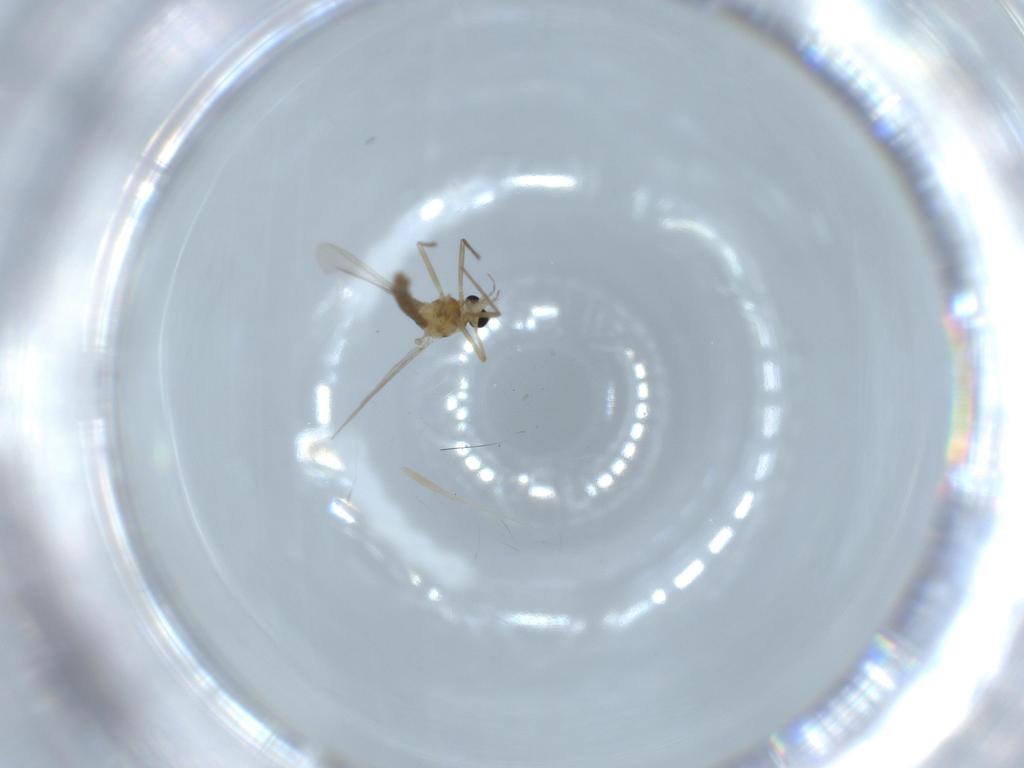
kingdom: Animalia
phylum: Arthropoda
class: Insecta
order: Diptera
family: Chironomidae
